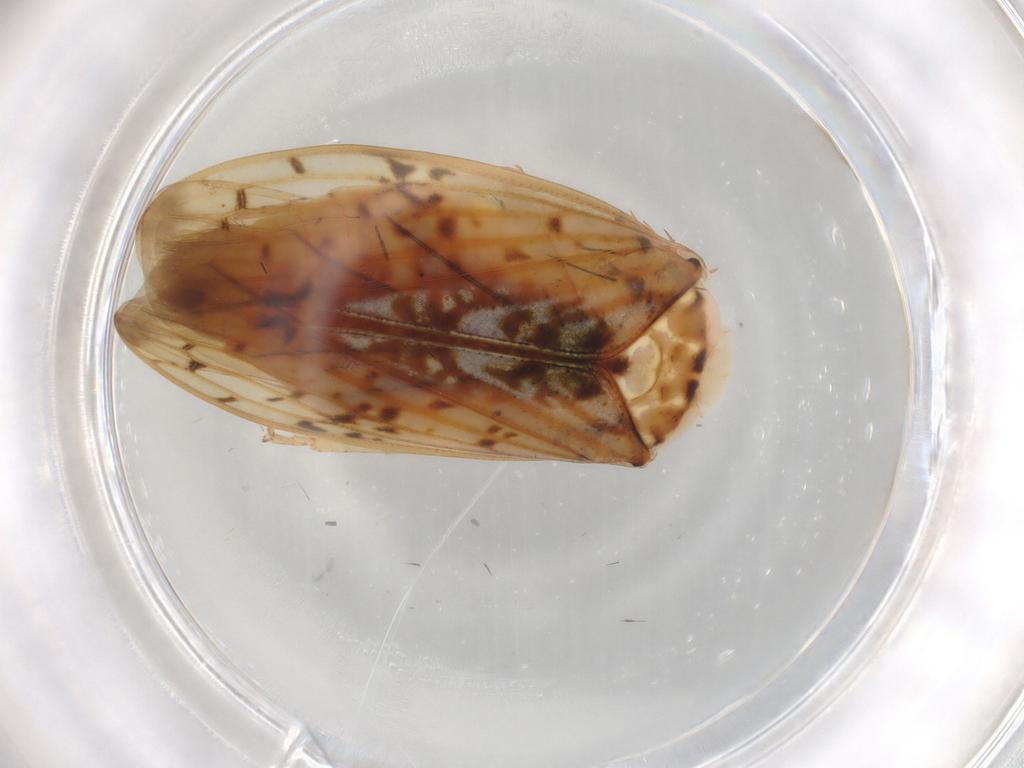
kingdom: Animalia
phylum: Arthropoda
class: Insecta
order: Hemiptera
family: Cicadellidae
